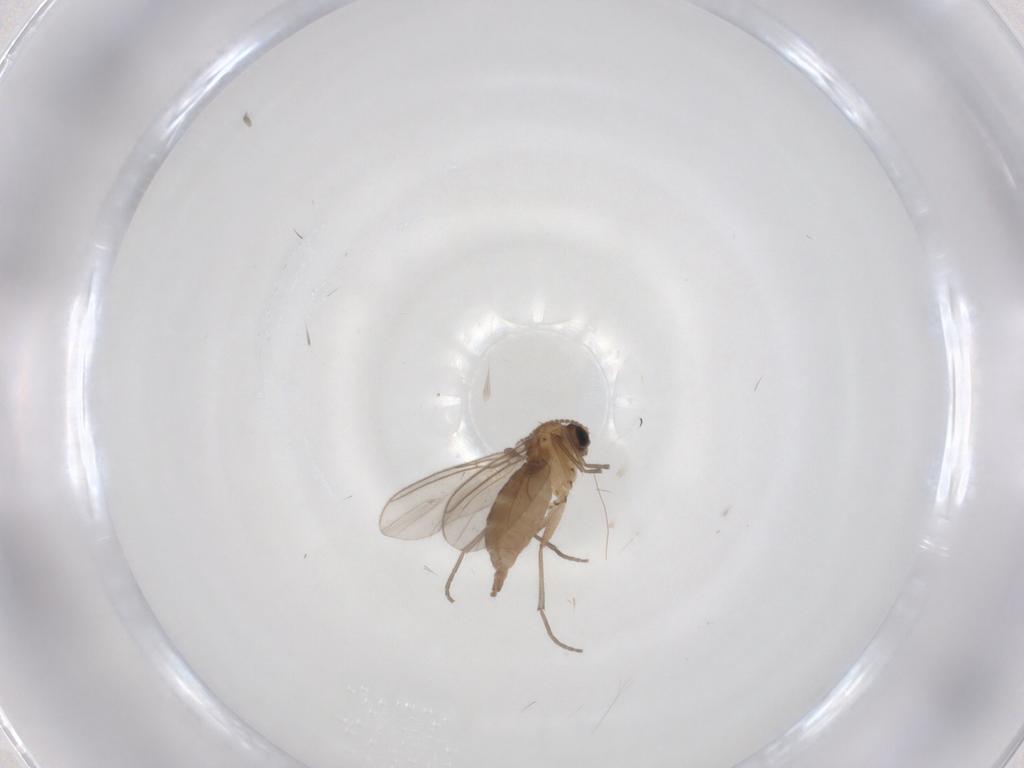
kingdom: Animalia
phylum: Arthropoda
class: Insecta
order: Diptera
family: Sciaridae
